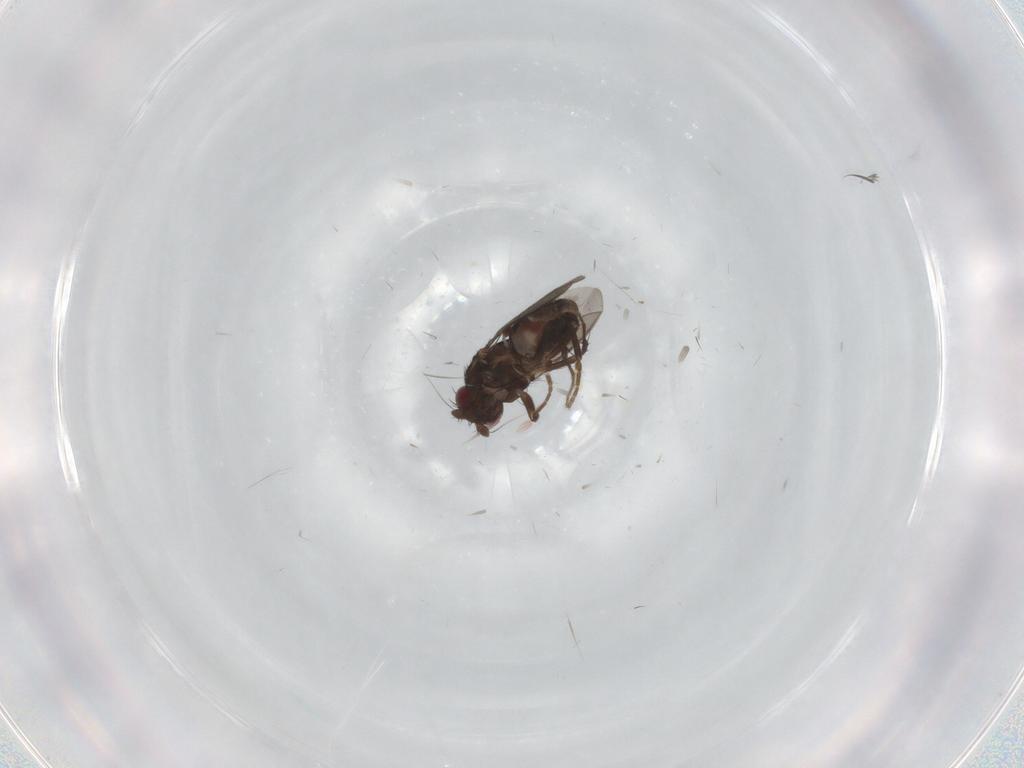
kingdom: Animalia
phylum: Arthropoda
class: Insecta
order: Diptera
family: Sphaeroceridae
